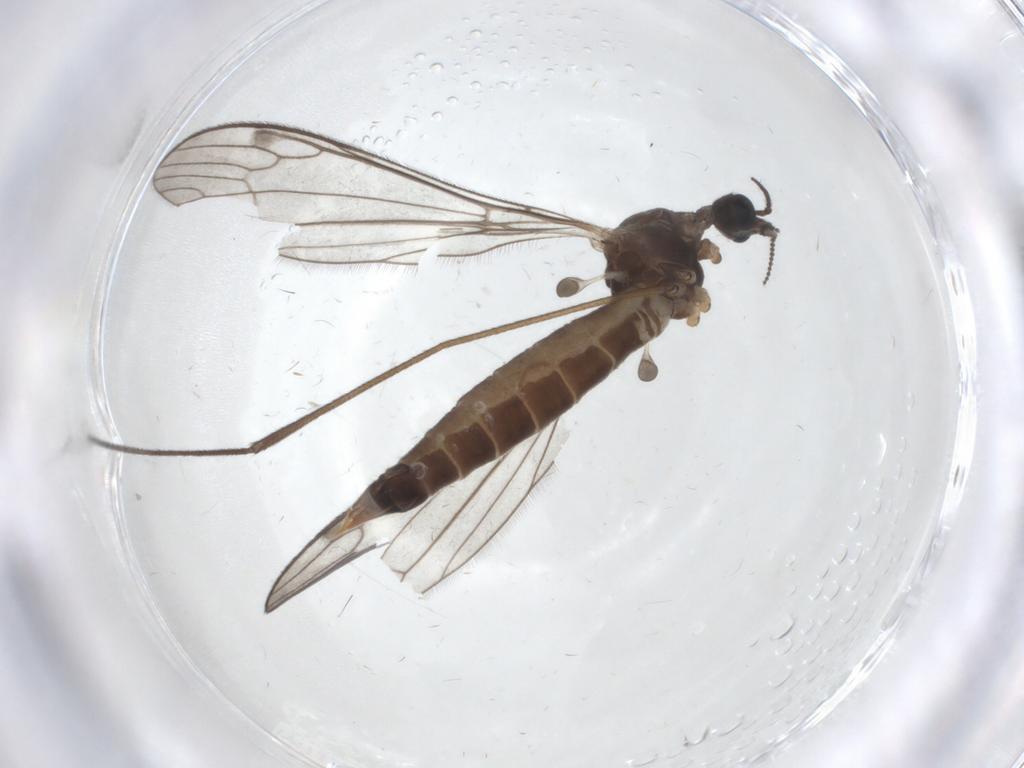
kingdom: Animalia
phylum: Arthropoda
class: Insecta
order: Diptera
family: Limoniidae
